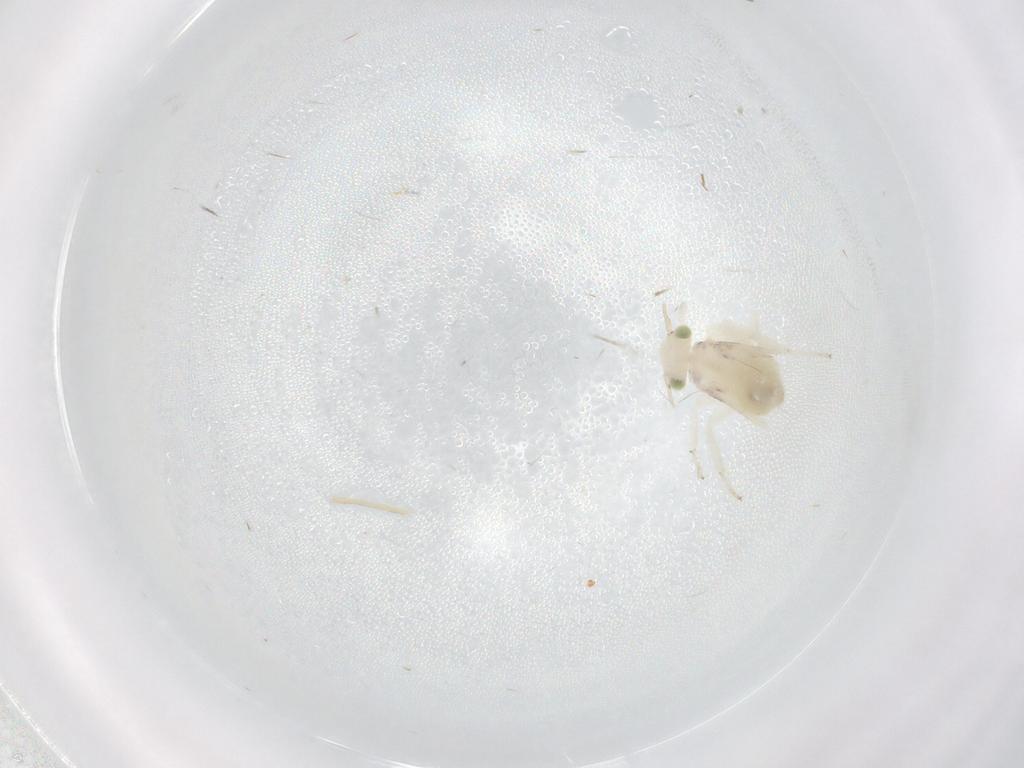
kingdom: Animalia
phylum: Arthropoda
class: Insecta
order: Psocodea
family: Lepidopsocidae
